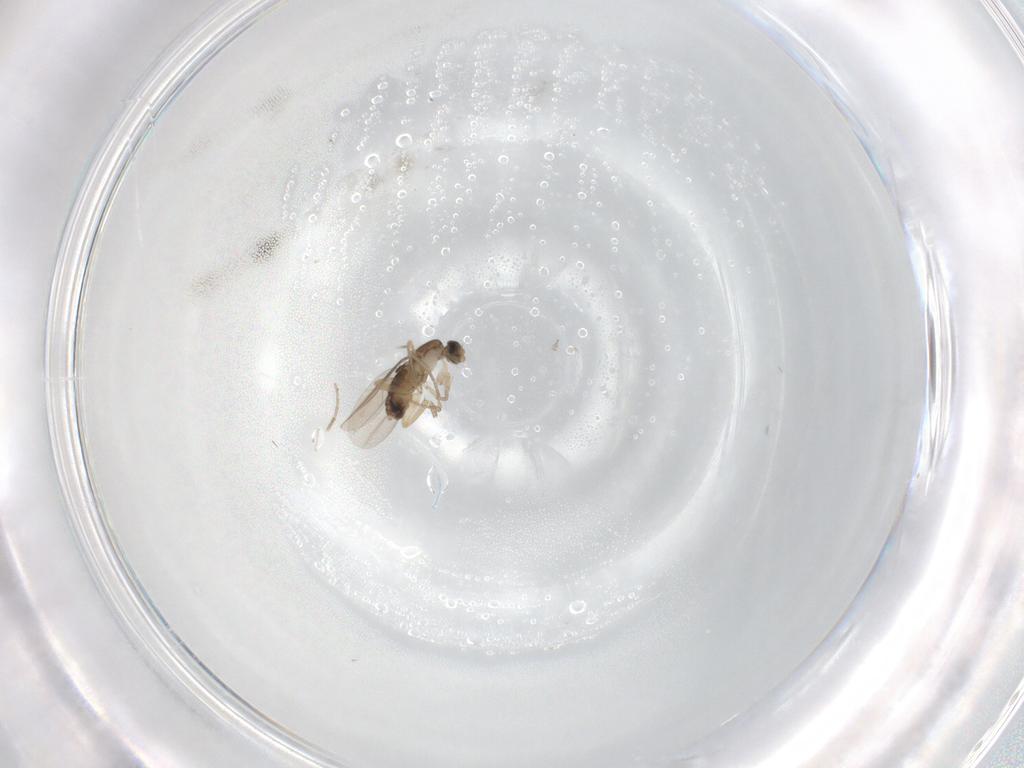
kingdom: Animalia
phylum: Arthropoda
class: Insecta
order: Diptera
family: Phoridae
